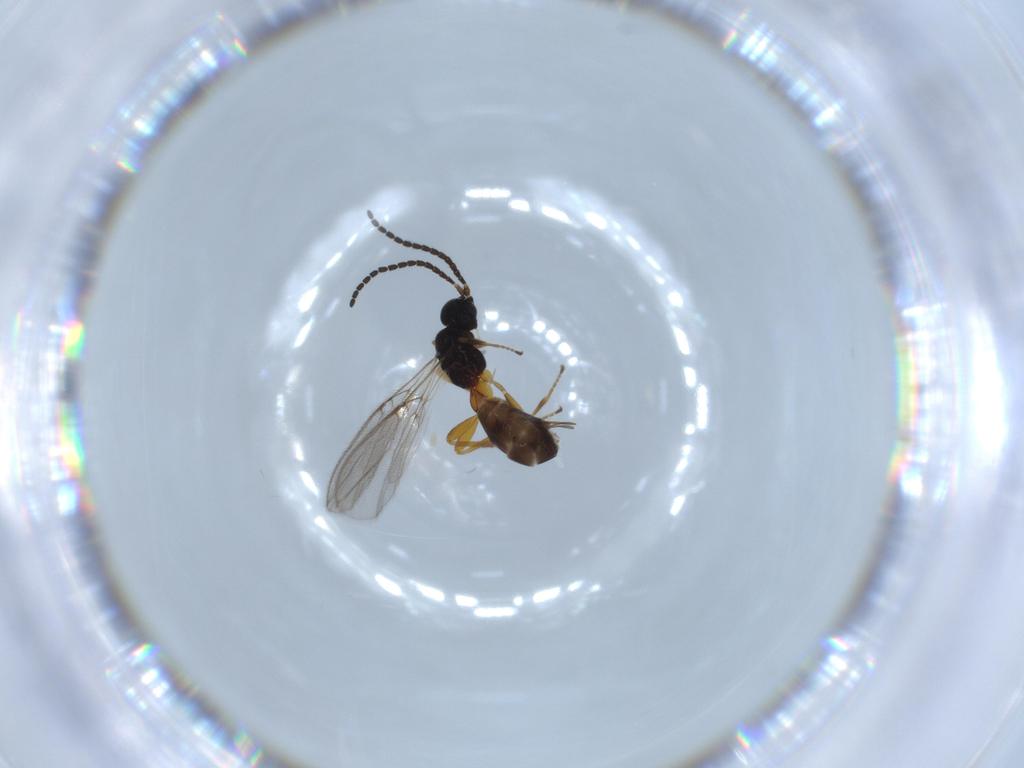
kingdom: Animalia
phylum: Arthropoda
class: Insecta
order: Hymenoptera
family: Braconidae
